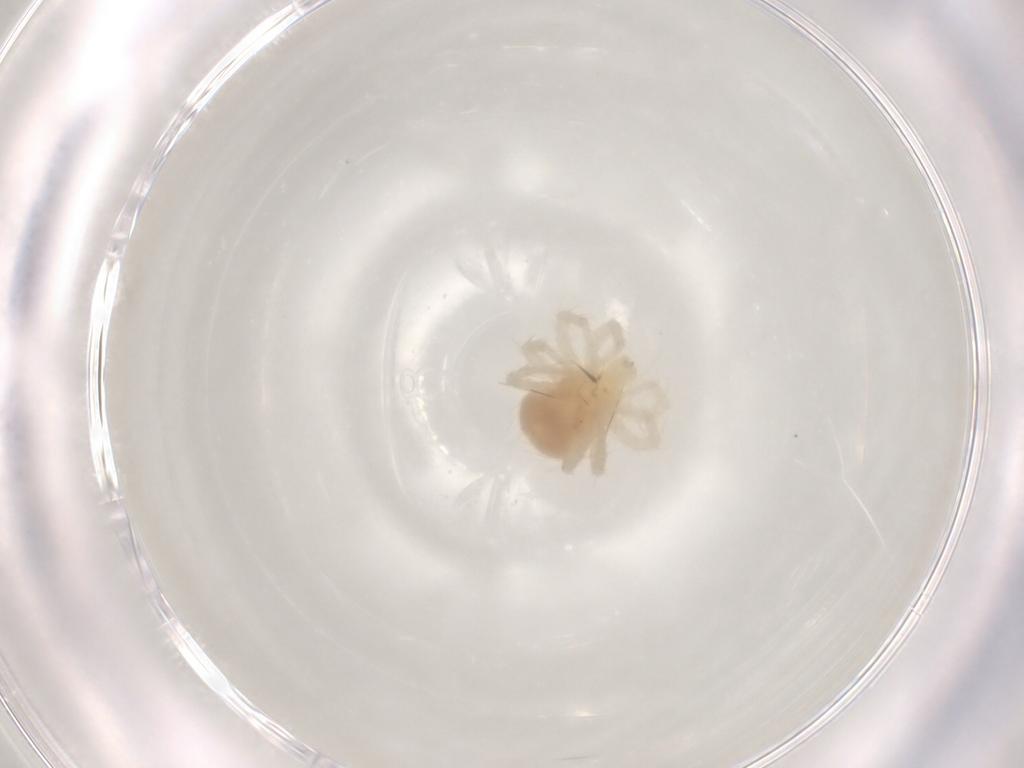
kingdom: Animalia
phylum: Arthropoda
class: Arachnida
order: Trombidiformes
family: Anystidae
